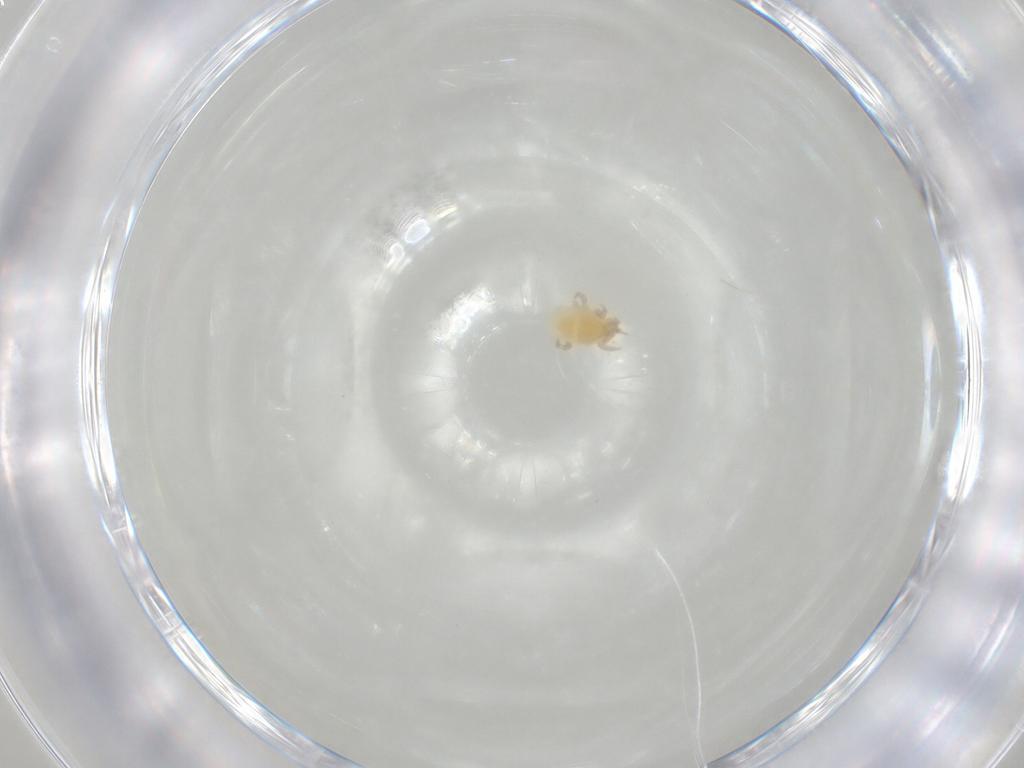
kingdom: Animalia
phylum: Arthropoda
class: Arachnida
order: Mesostigmata
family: Parasitidae
